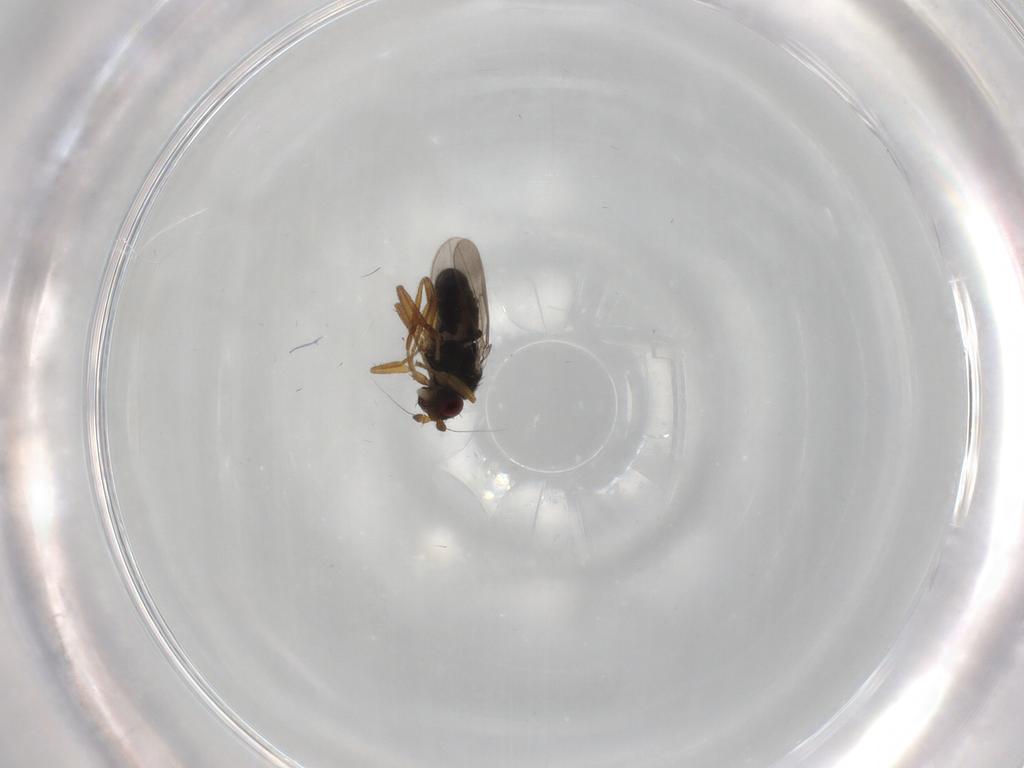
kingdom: Animalia
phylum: Arthropoda
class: Insecta
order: Diptera
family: Sphaeroceridae
